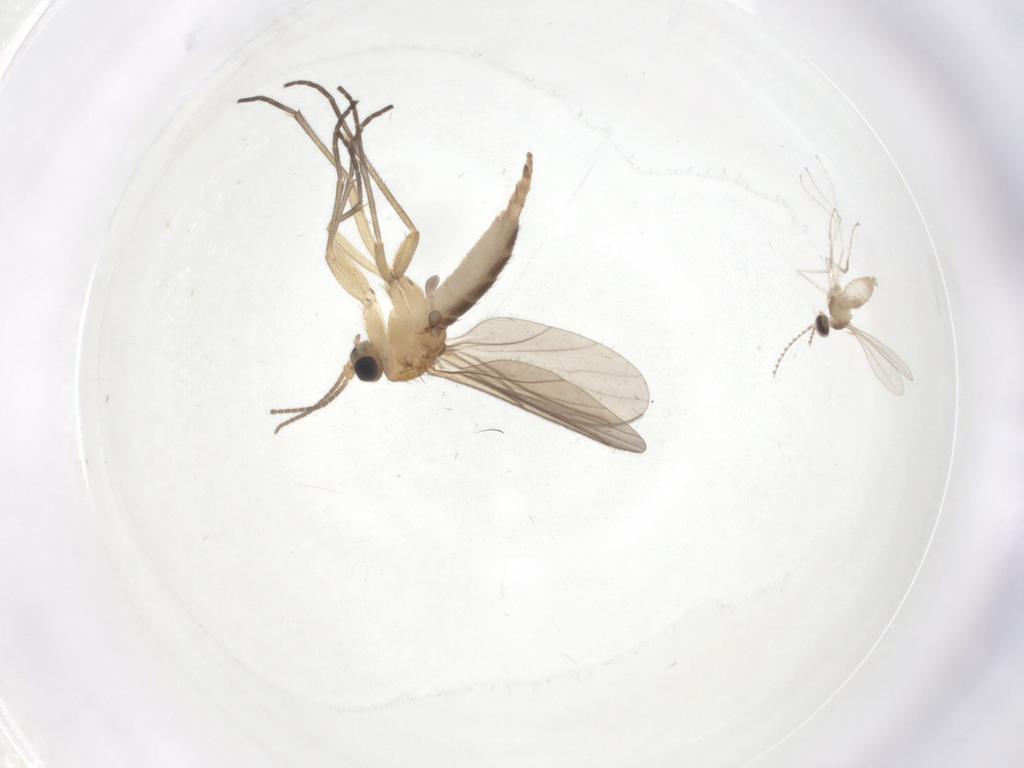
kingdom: Animalia
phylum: Arthropoda
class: Insecta
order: Diptera
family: Cecidomyiidae
